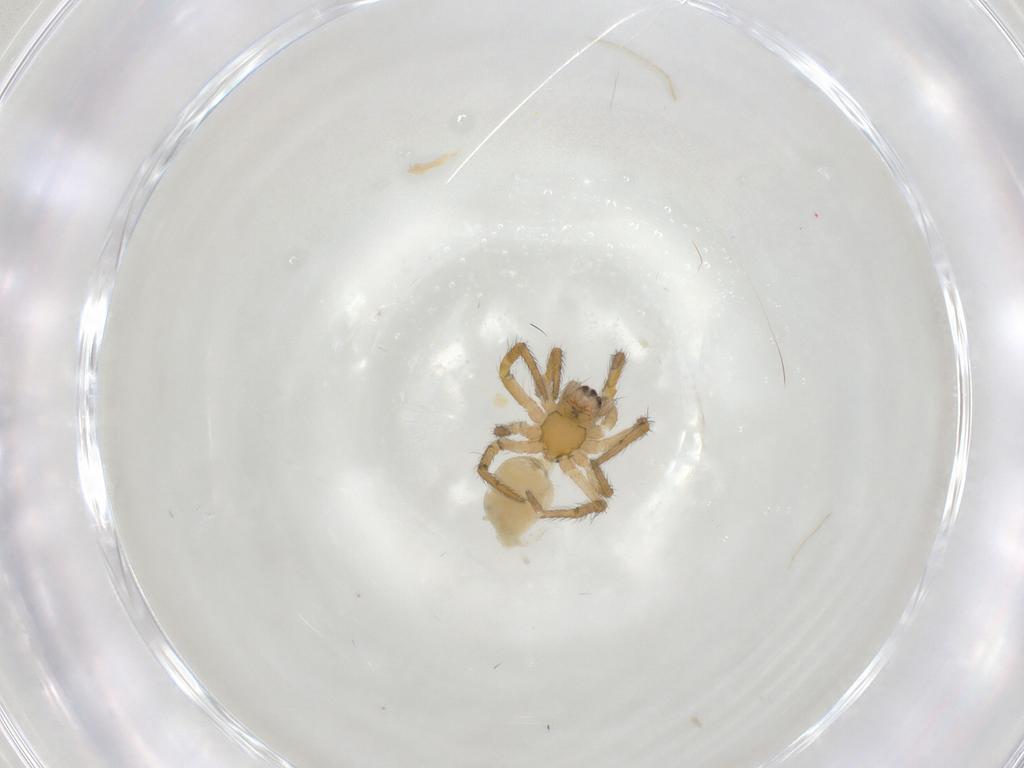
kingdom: Animalia
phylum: Arthropoda
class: Arachnida
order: Araneae
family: Araneidae
